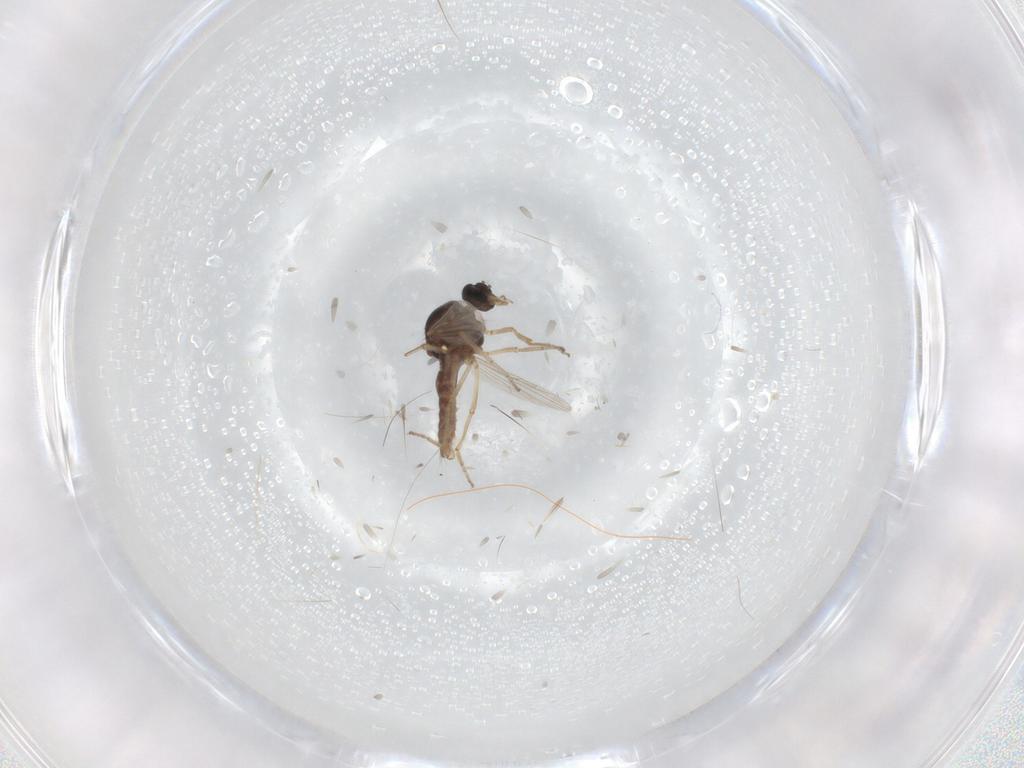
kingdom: Animalia
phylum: Arthropoda
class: Insecta
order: Diptera
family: Ceratopogonidae
